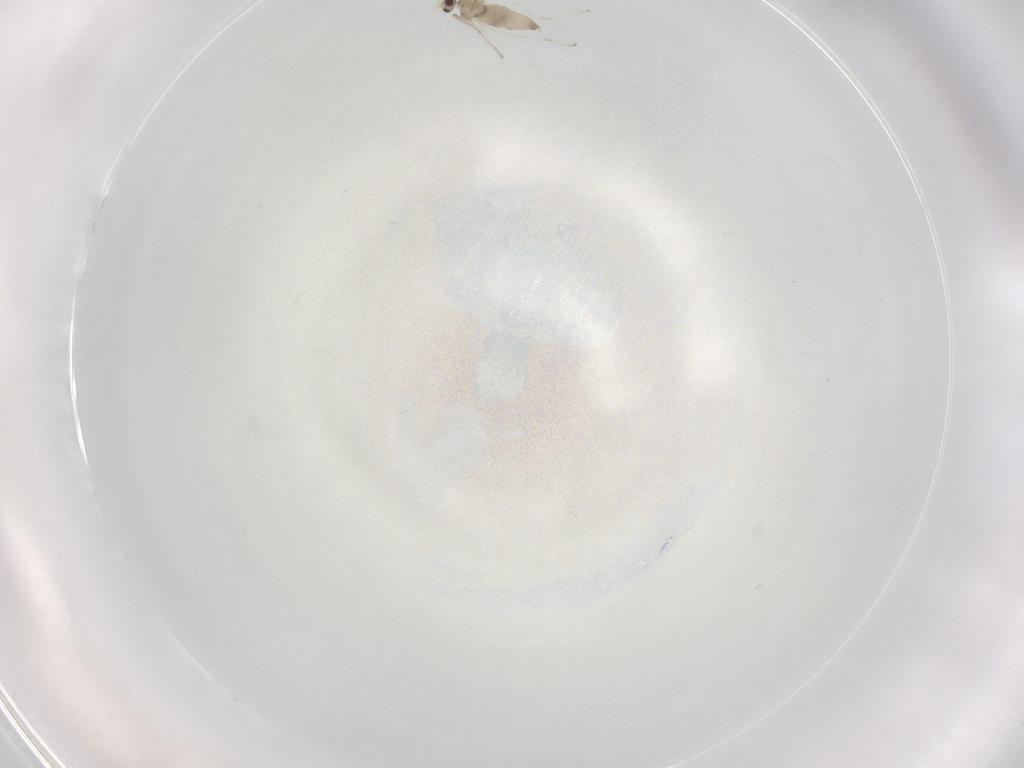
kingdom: Animalia
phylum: Arthropoda
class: Insecta
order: Diptera
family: Cecidomyiidae
